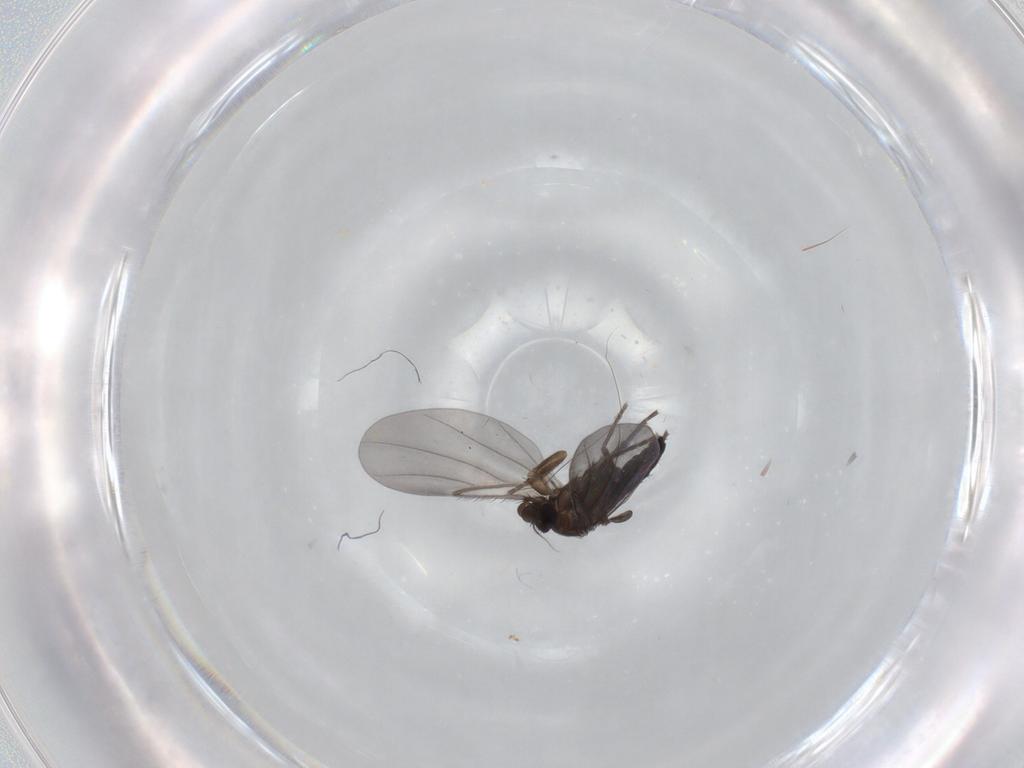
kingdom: Animalia
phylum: Arthropoda
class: Insecta
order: Diptera
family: Phoridae
